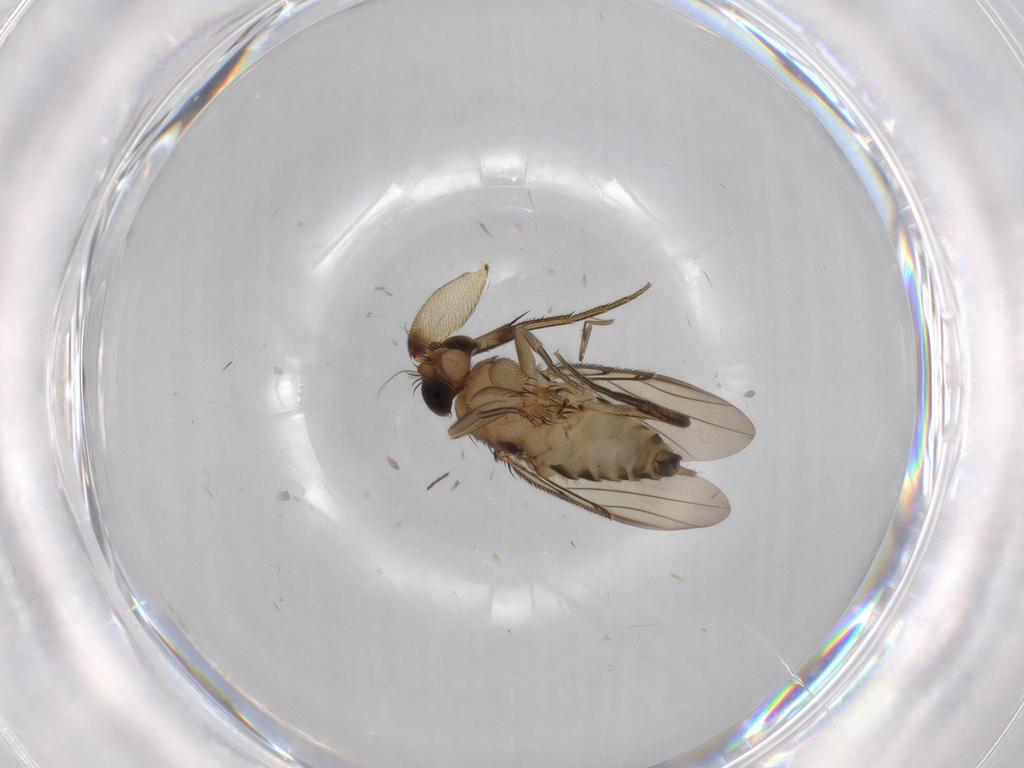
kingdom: Animalia
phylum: Arthropoda
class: Insecta
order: Diptera
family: Phoridae
